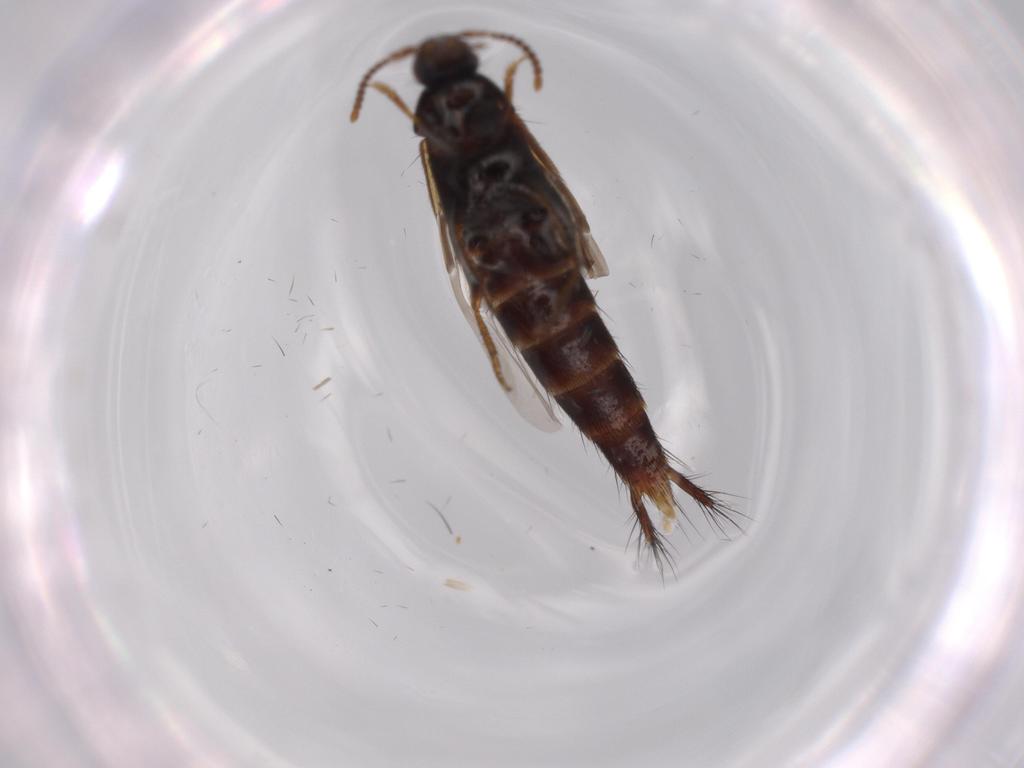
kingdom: Animalia
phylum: Arthropoda
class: Insecta
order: Coleoptera
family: Staphylinidae
